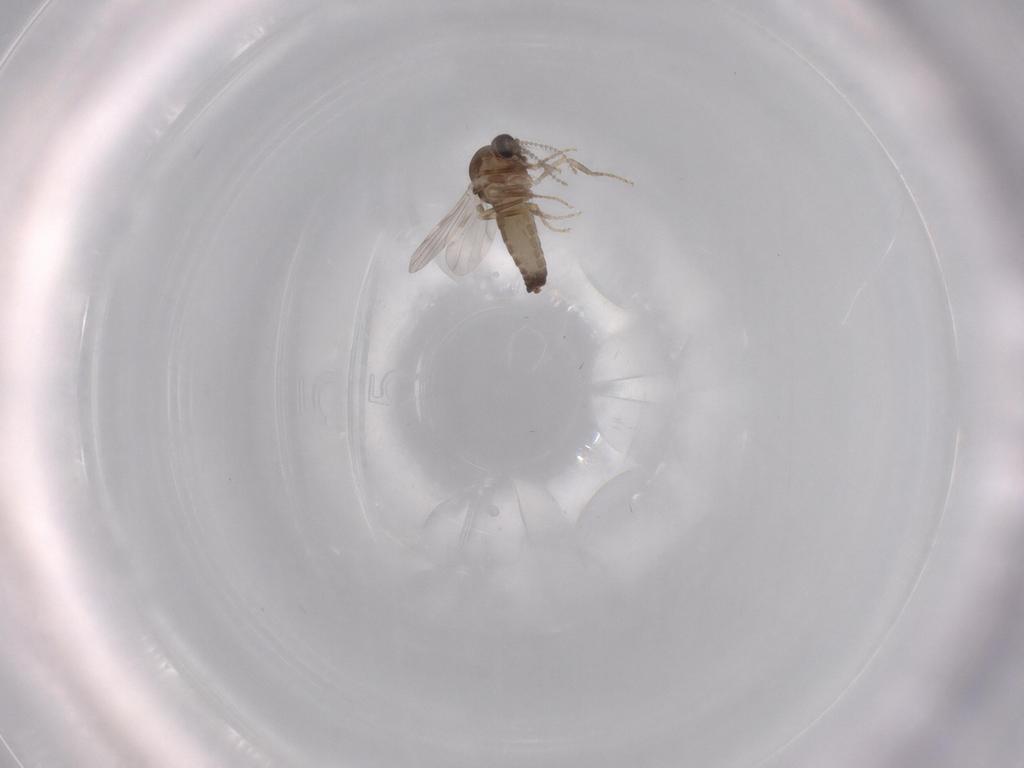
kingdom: Animalia
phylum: Arthropoda
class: Insecta
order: Diptera
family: Ceratopogonidae
